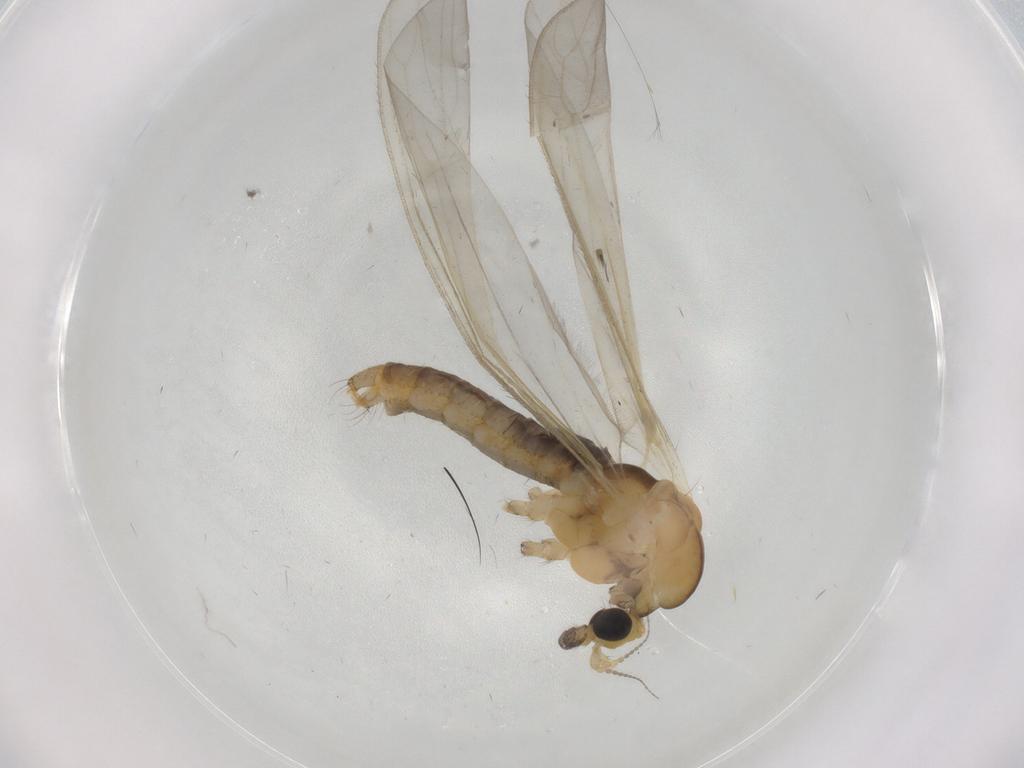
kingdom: Animalia
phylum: Arthropoda
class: Insecta
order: Diptera
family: Limoniidae
